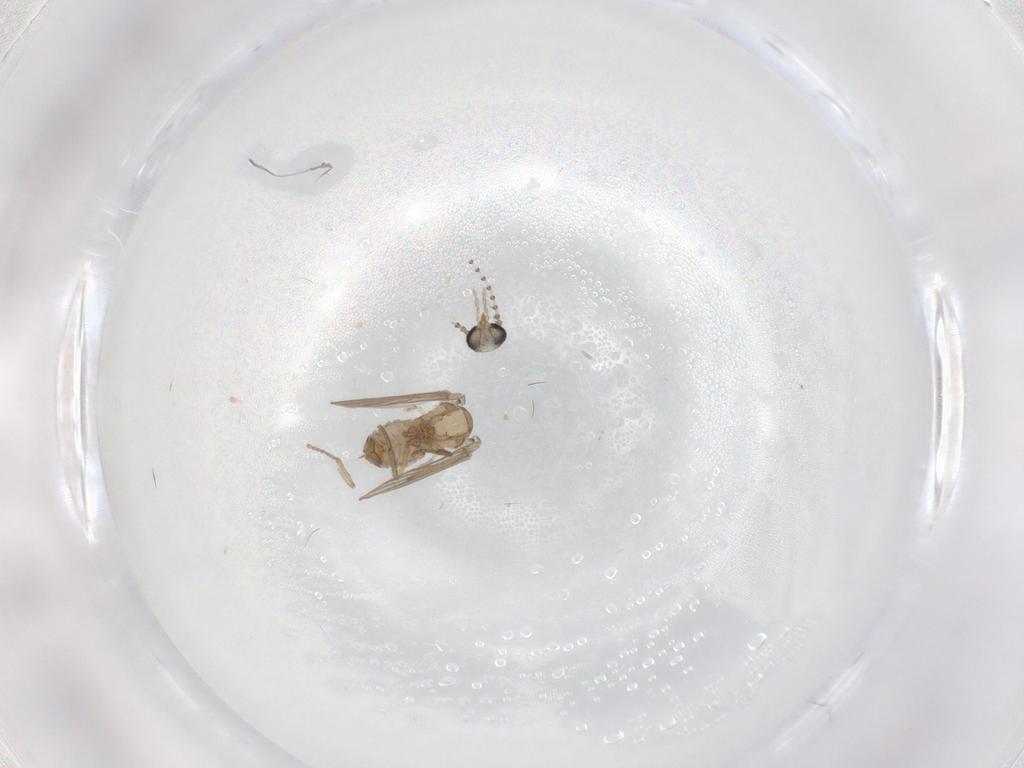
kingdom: Animalia
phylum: Arthropoda
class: Insecta
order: Diptera
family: Psychodidae
